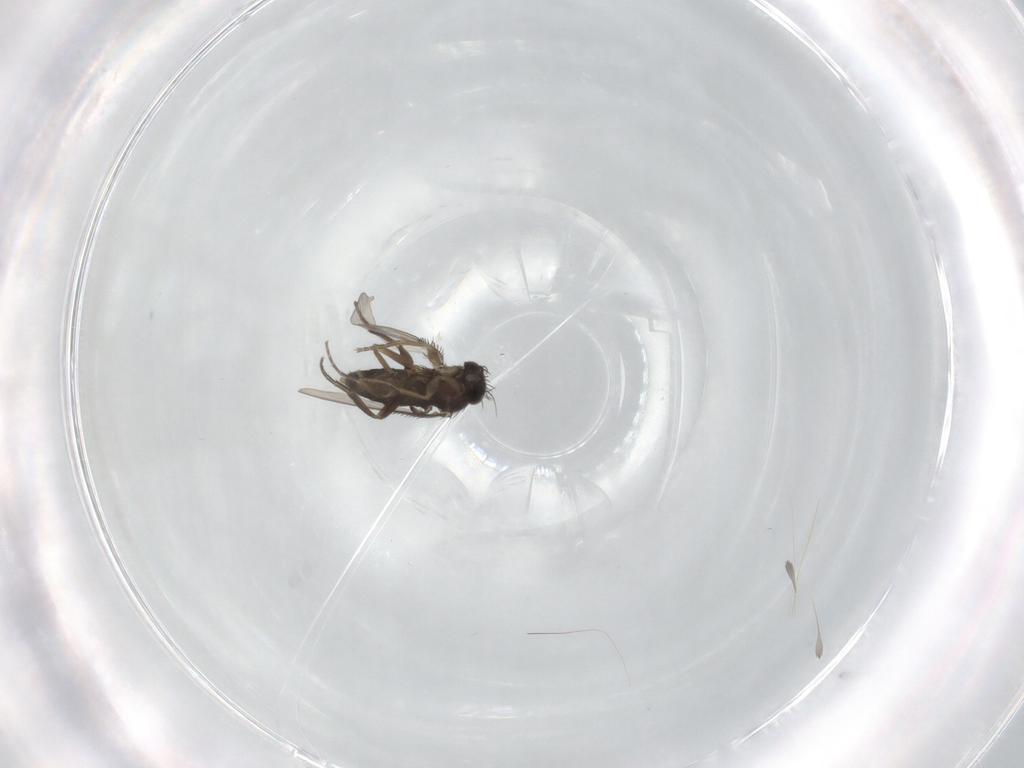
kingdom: Animalia
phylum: Arthropoda
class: Insecta
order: Diptera
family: Phoridae
